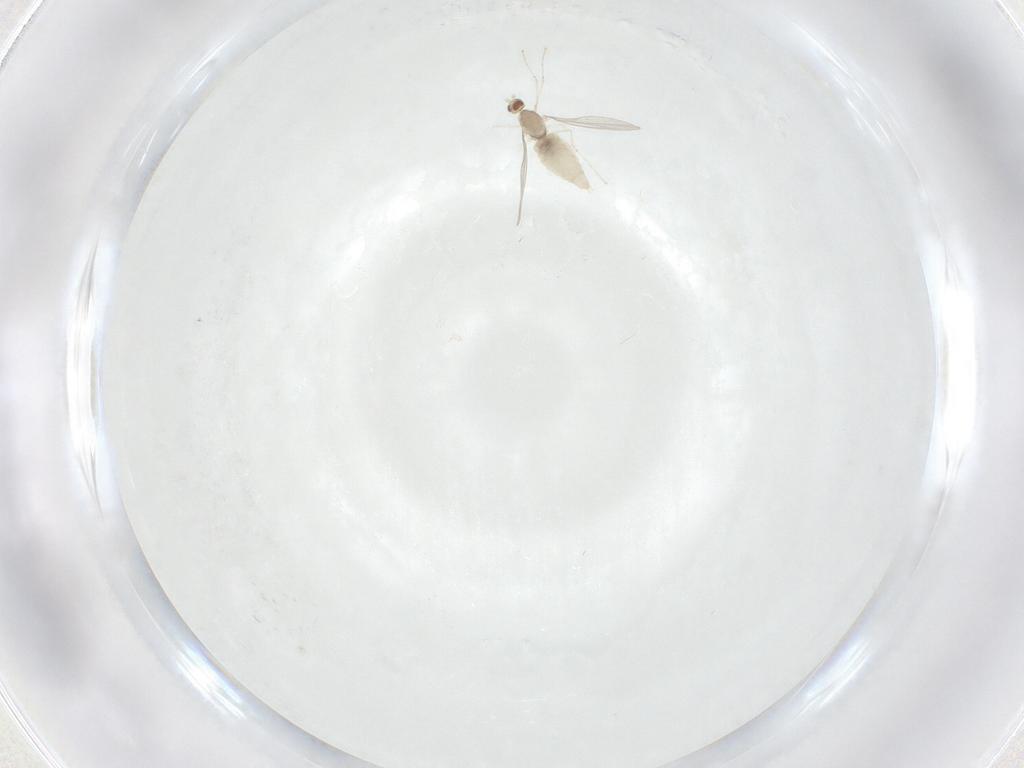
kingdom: Animalia
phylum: Arthropoda
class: Insecta
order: Diptera
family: Cecidomyiidae
